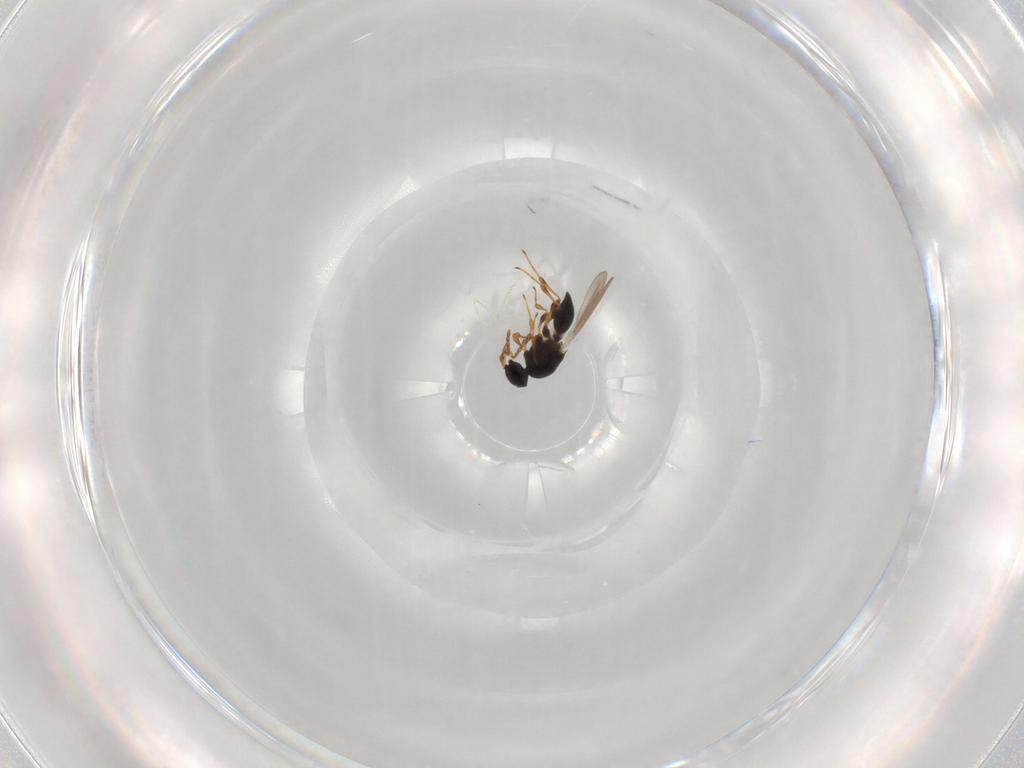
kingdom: Animalia
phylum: Arthropoda
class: Insecta
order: Hymenoptera
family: Platygastridae
